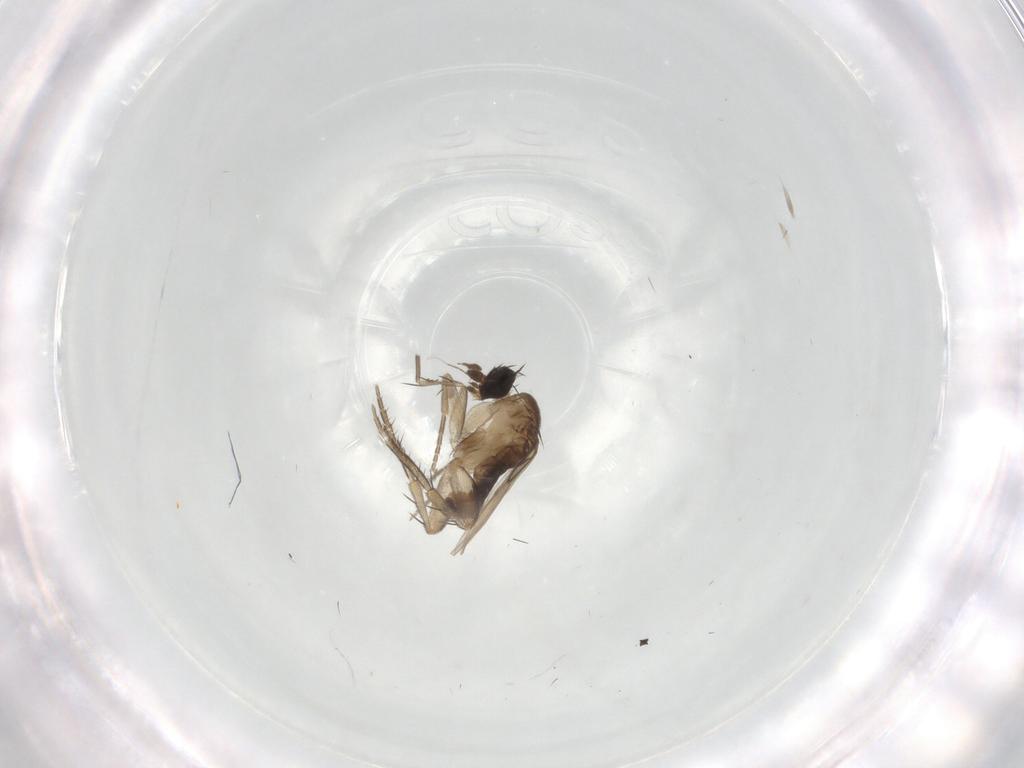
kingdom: Animalia
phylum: Arthropoda
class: Insecta
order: Diptera
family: Phoridae
